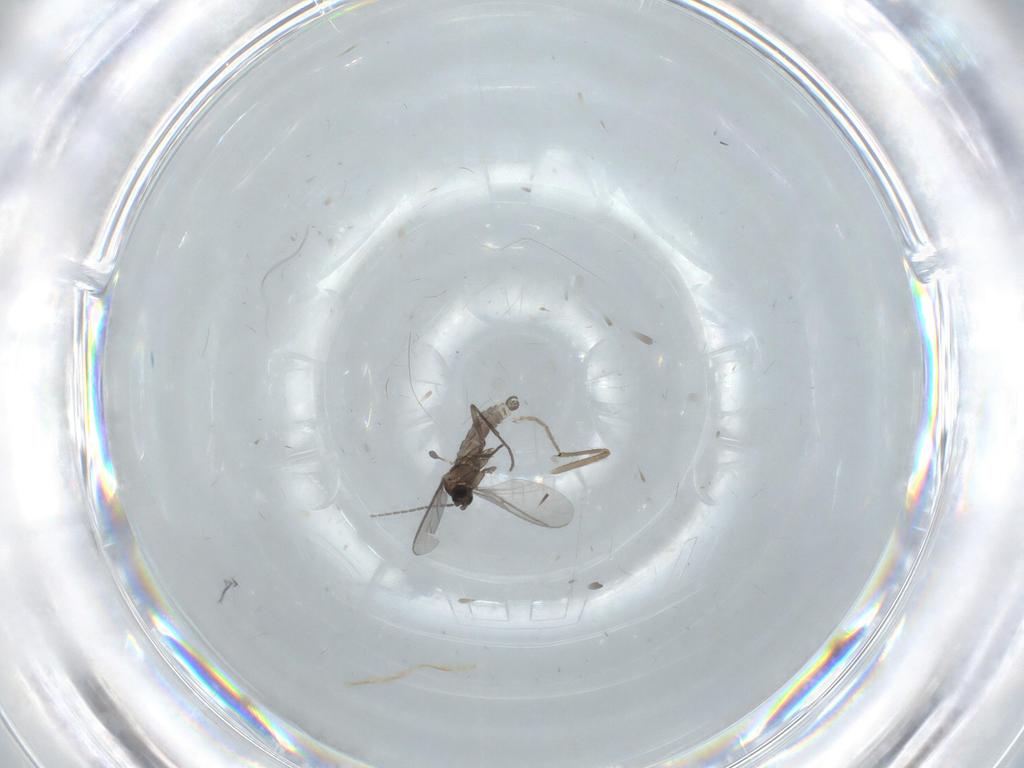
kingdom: Animalia
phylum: Arthropoda
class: Insecta
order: Diptera
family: Sciaridae
